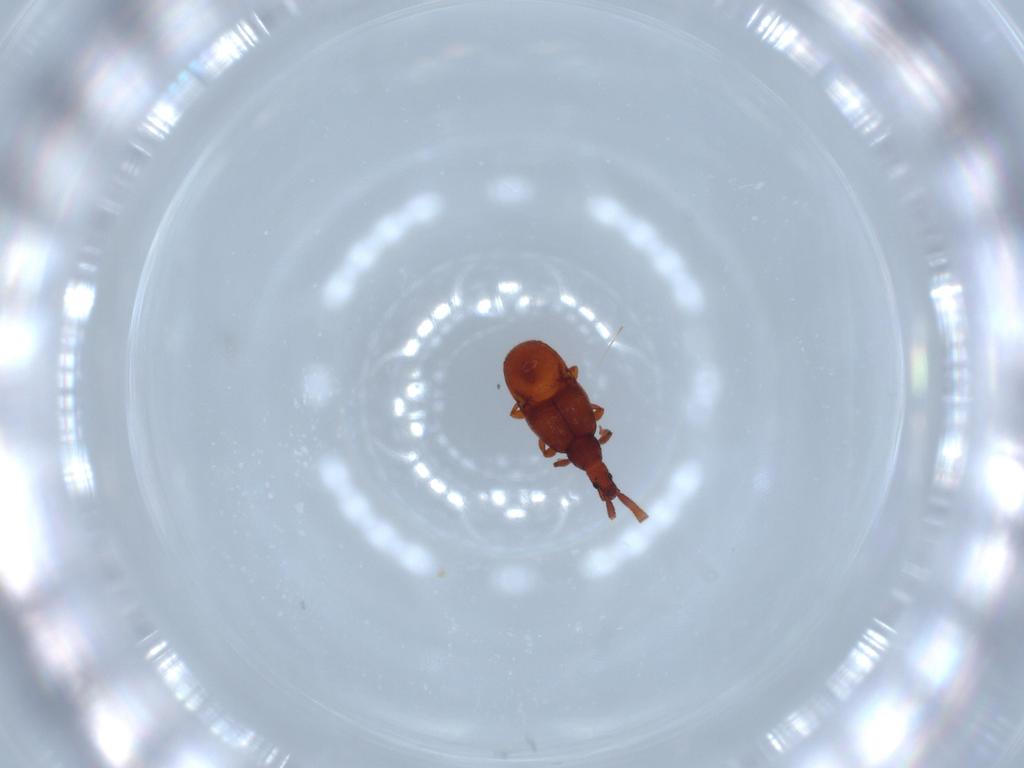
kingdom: Animalia
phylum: Arthropoda
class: Insecta
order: Coleoptera
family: Staphylinidae
